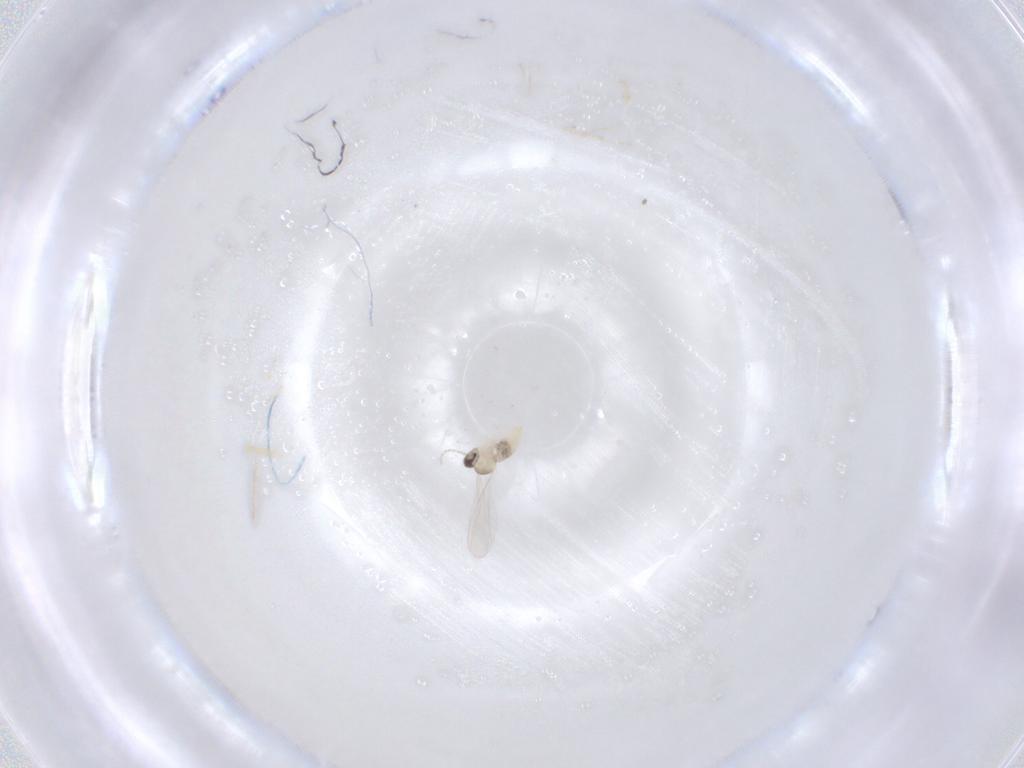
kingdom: Animalia
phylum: Arthropoda
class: Insecta
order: Diptera
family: Cecidomyiidae
